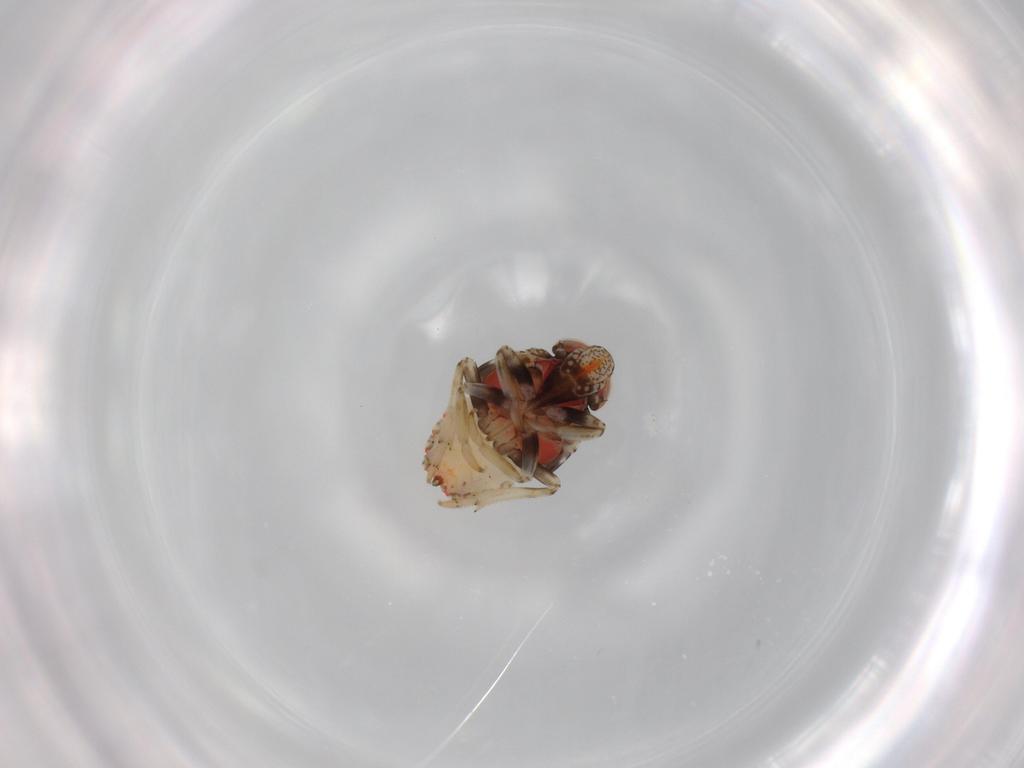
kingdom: Animalia
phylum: Arthropoda
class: Insecta
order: Hemiptera
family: Issidae
